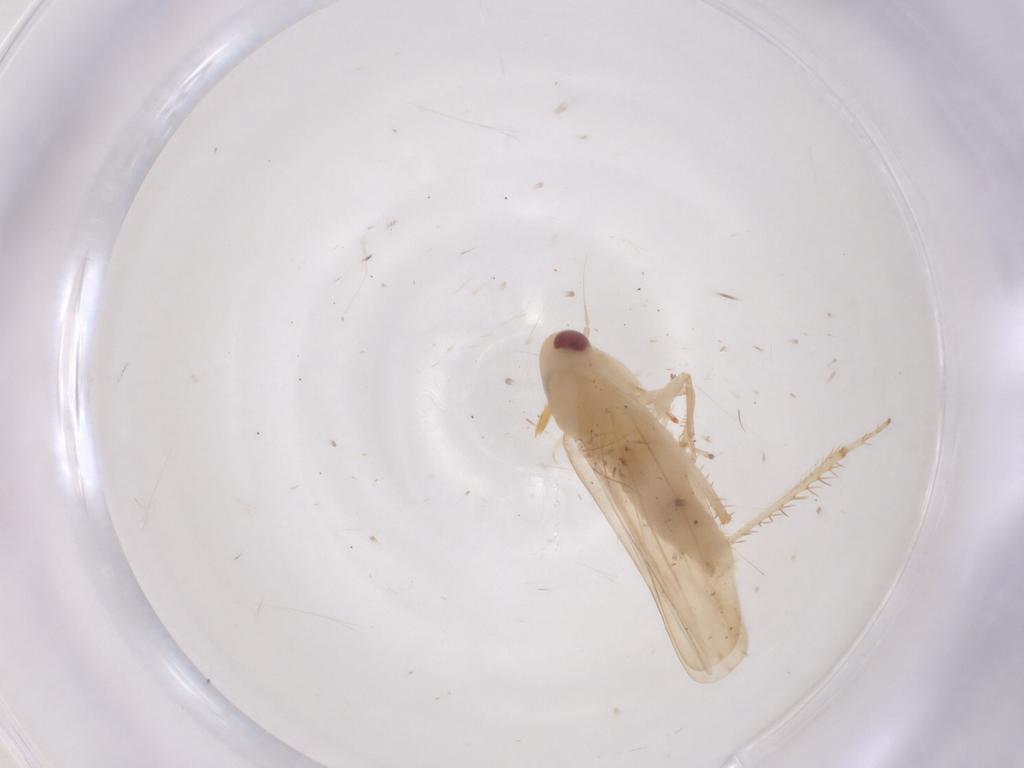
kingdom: Animalia
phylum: Arthropoda
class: Insecta
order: Hemiptera
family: Cicadellidae
